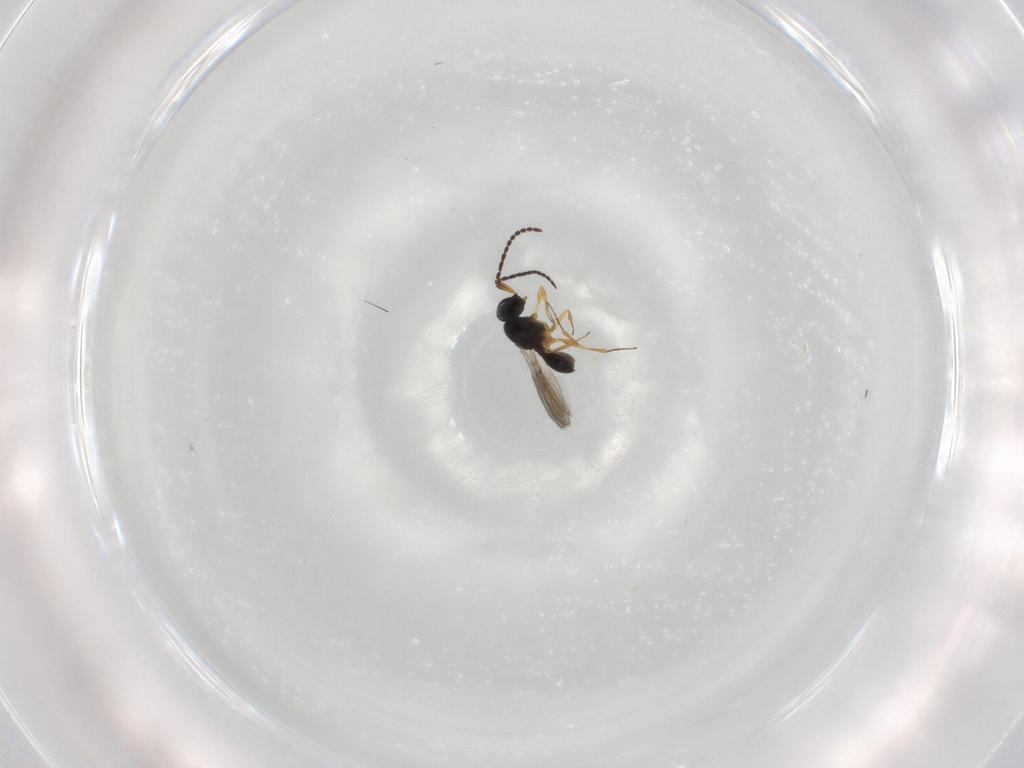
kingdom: Animalia
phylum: Arthropoda
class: Insecta
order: Hymenoptera
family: Scelionidae
